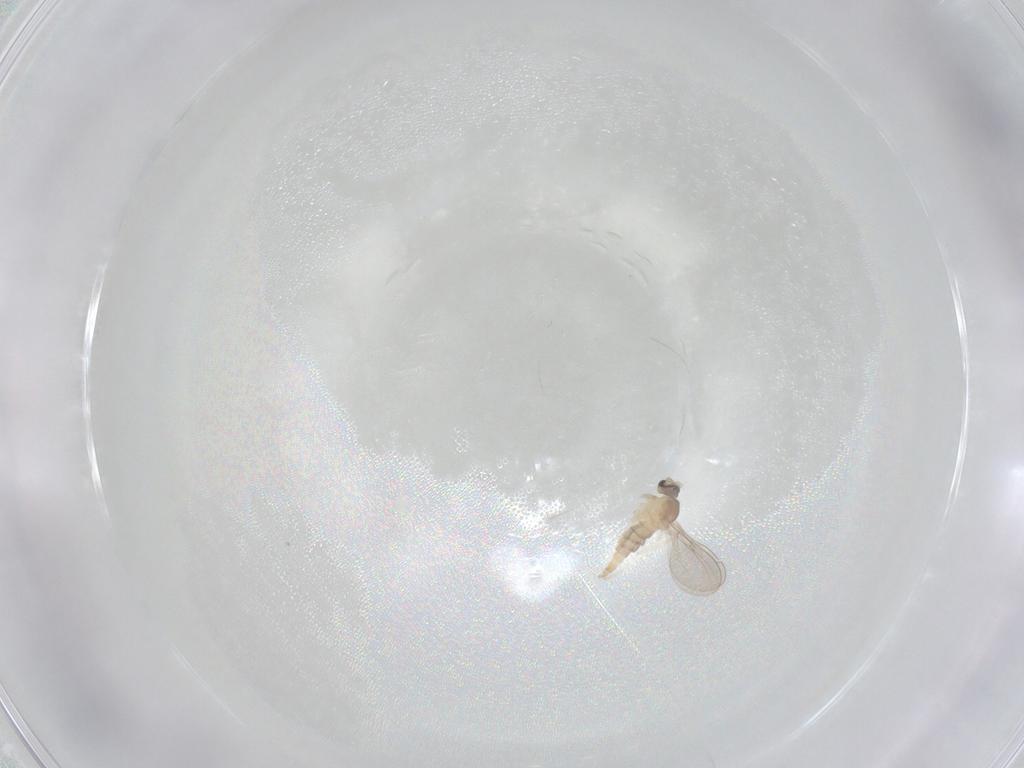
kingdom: Animalia
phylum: Arthropoda
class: Insecta
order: Diptera
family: Cecidomyiidae
